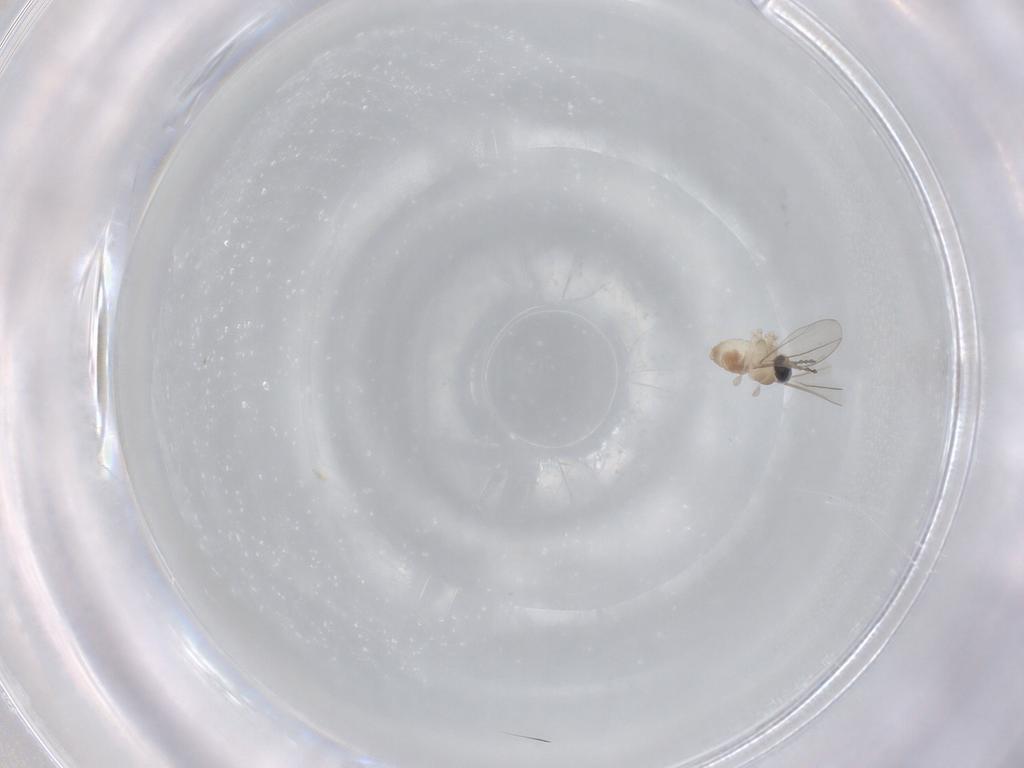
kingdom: Animalia
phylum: Arthropoda
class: Insecta
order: Diptera
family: Cecidomyiidae
